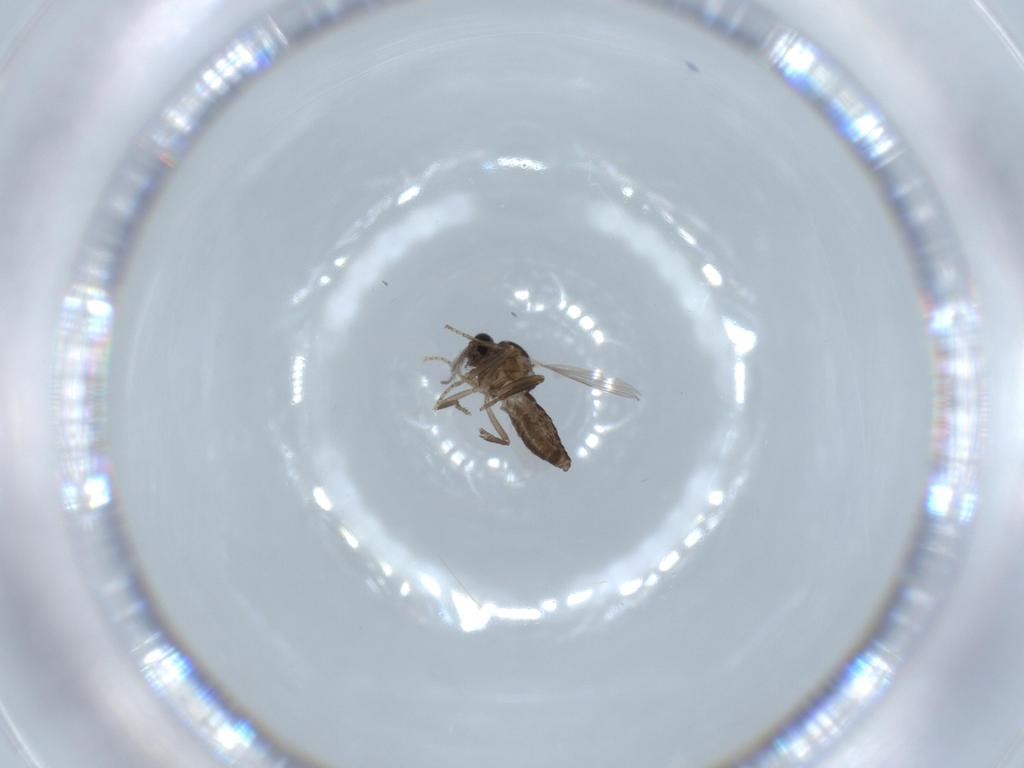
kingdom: Animalia
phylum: Arthropoda
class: Insecta
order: Diptera
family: Ceratopogonidae
